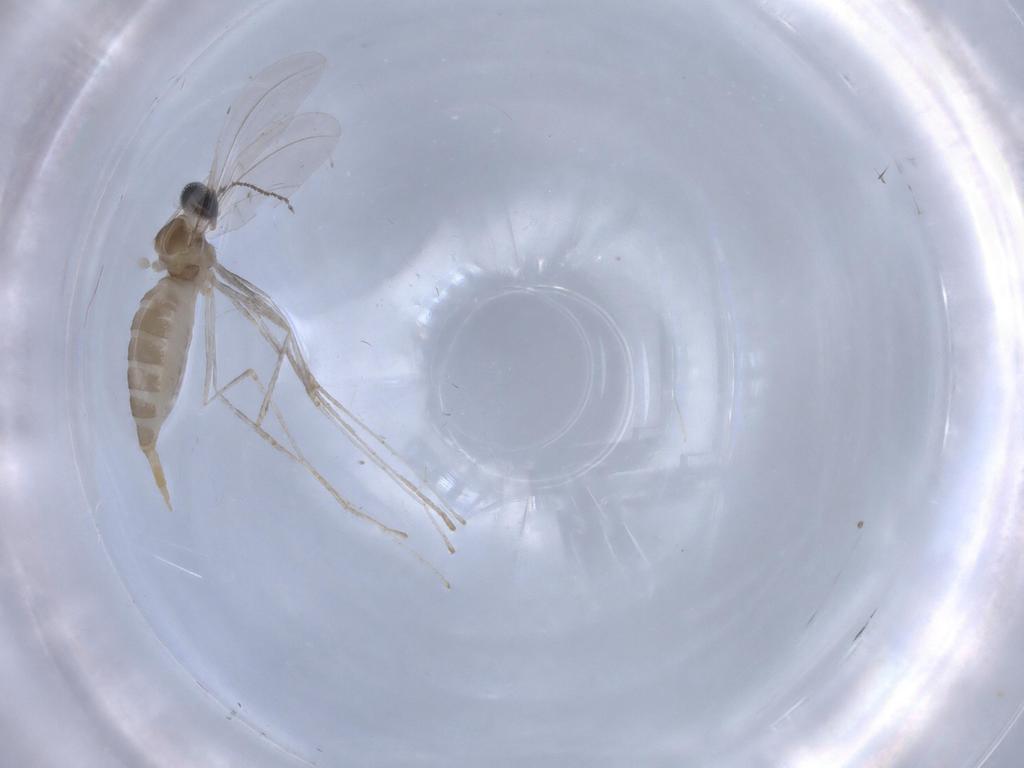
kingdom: Animalia
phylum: Arthropoda
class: Insecta
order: Diptera
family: Cecidomyiidae
